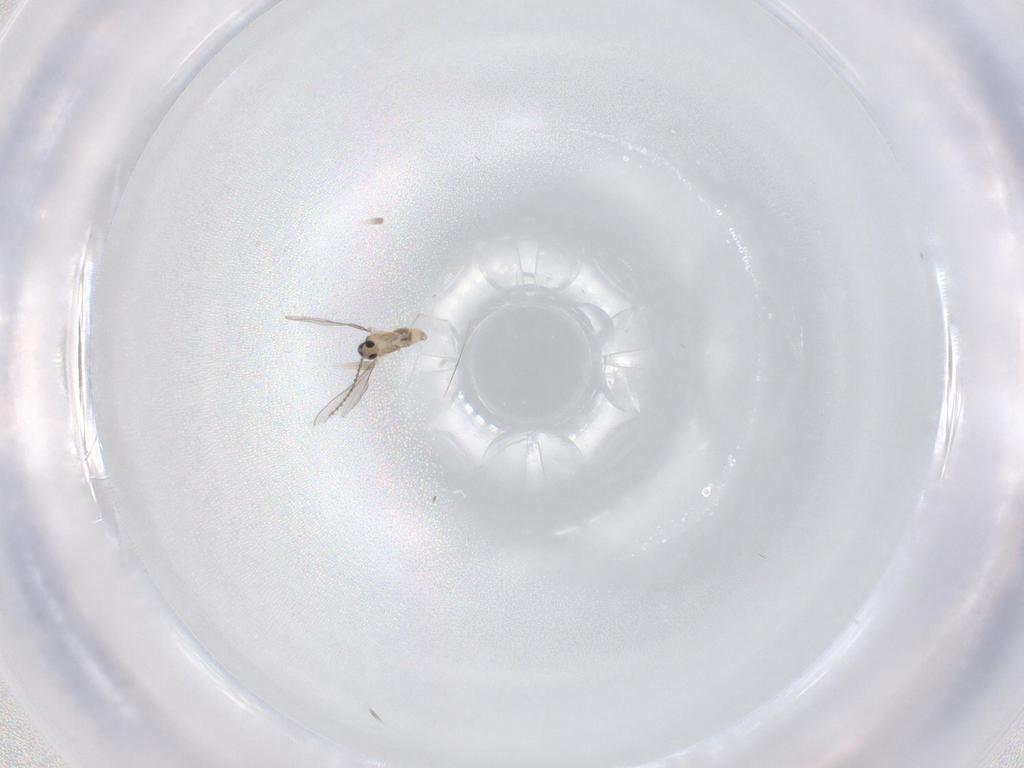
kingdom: Animalia
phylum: Arthropoda
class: Insecta
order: Diptera
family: Cecidomyiidae
